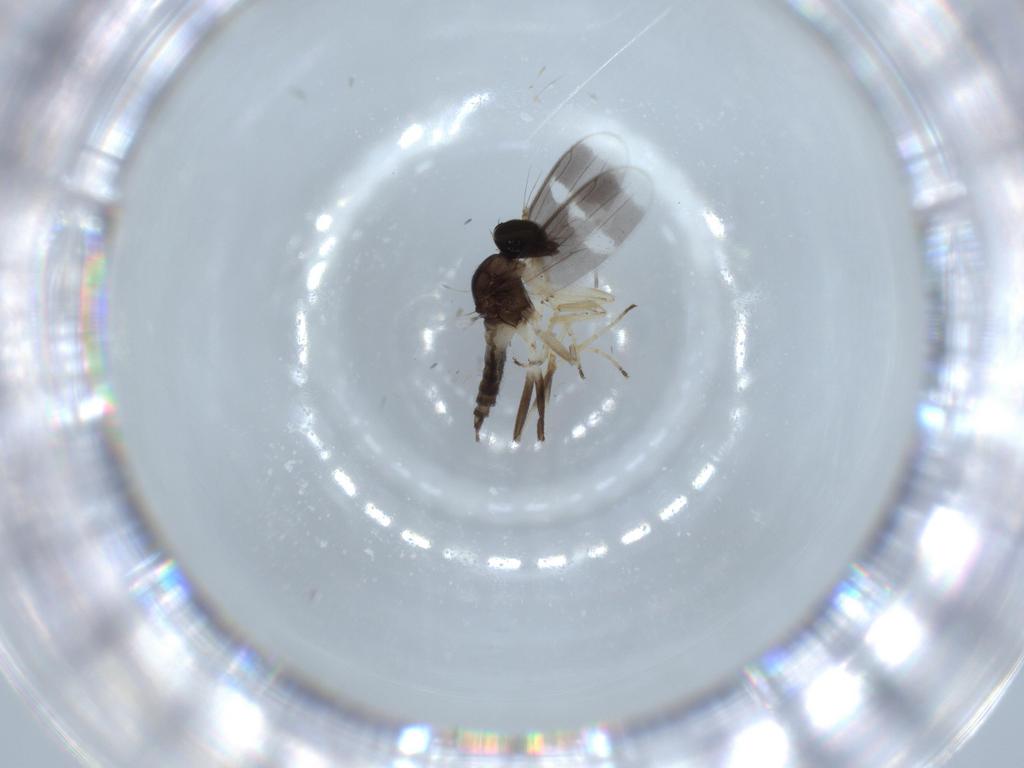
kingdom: Animalia
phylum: Arthropoda
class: Insecta
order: Diptera
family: Hybotidae
